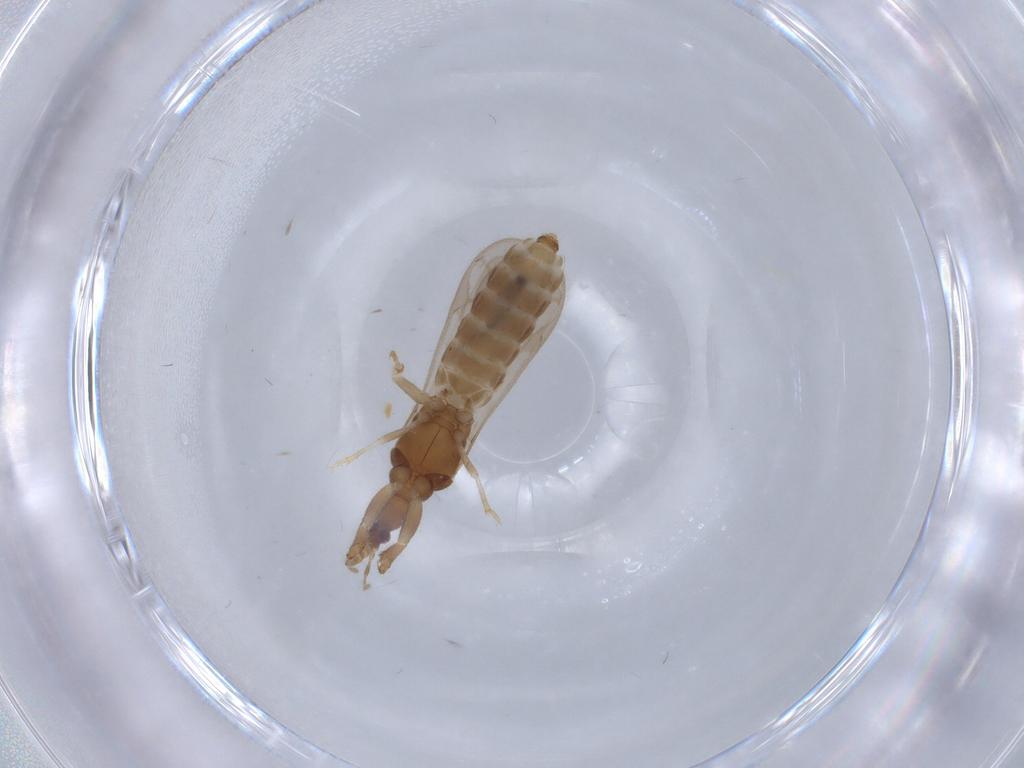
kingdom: Animalia
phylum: Arthropoda
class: Insecta
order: Hemiptera
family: Enicocephalidae
